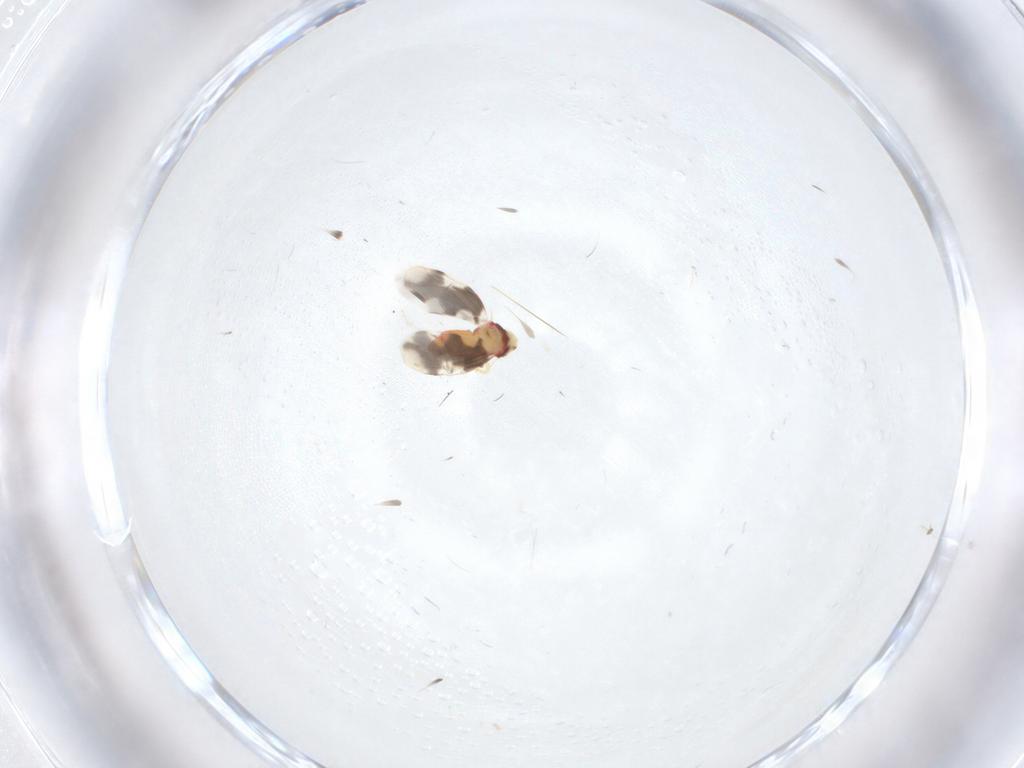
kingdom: Animalia
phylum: Arthropoda
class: Insecta
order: Hemiptera
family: Aleyrodidae
